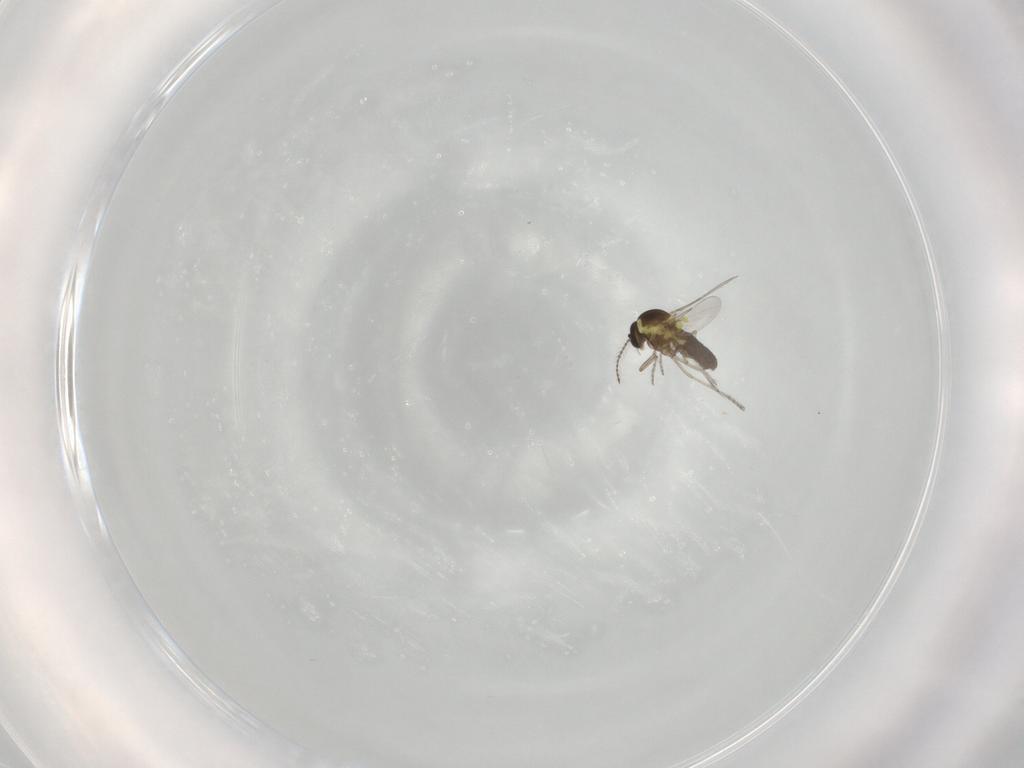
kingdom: Animalia
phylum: Arthropoda
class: Insecta
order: Diptera
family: Ceratopogonidae
